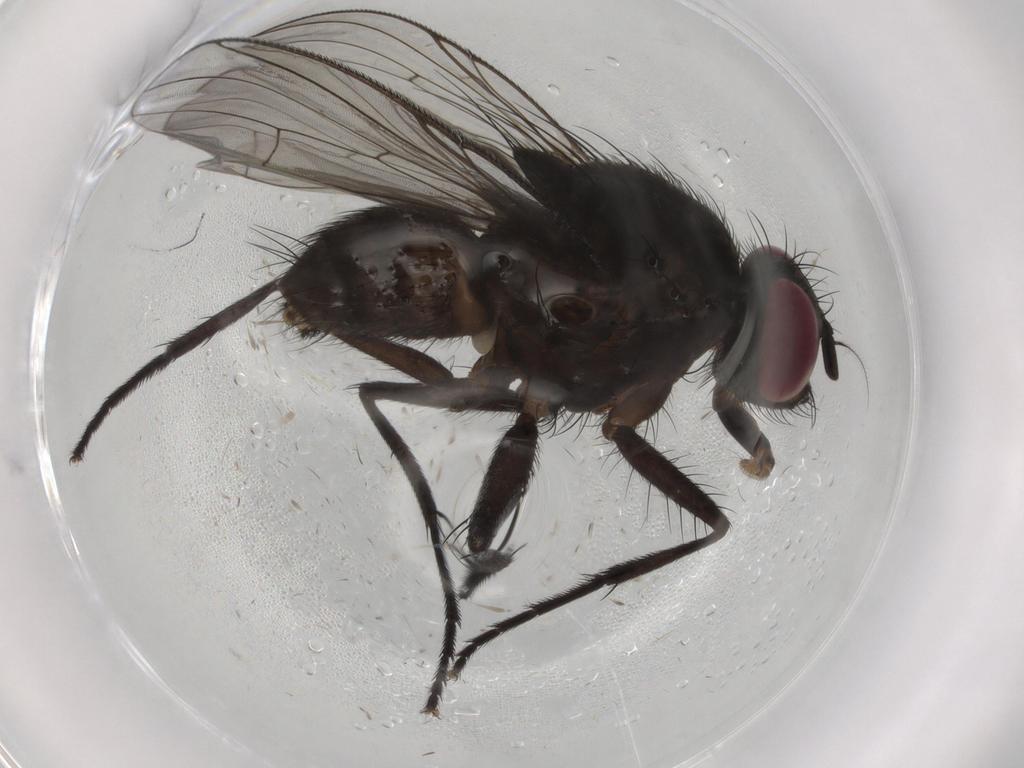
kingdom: Animalia
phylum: Arthropoda
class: Insecta
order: Diptera
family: Muscidae
